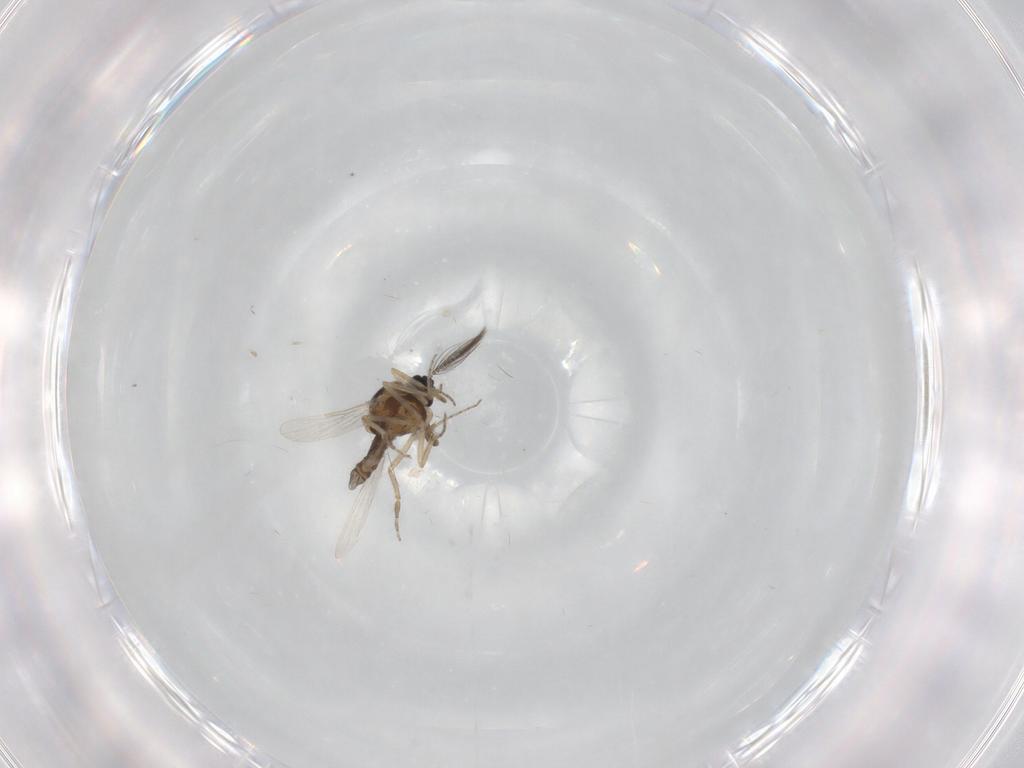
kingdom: Animalia
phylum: Arthropoda
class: Insecta
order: Diptera
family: Ceratopogonidae
